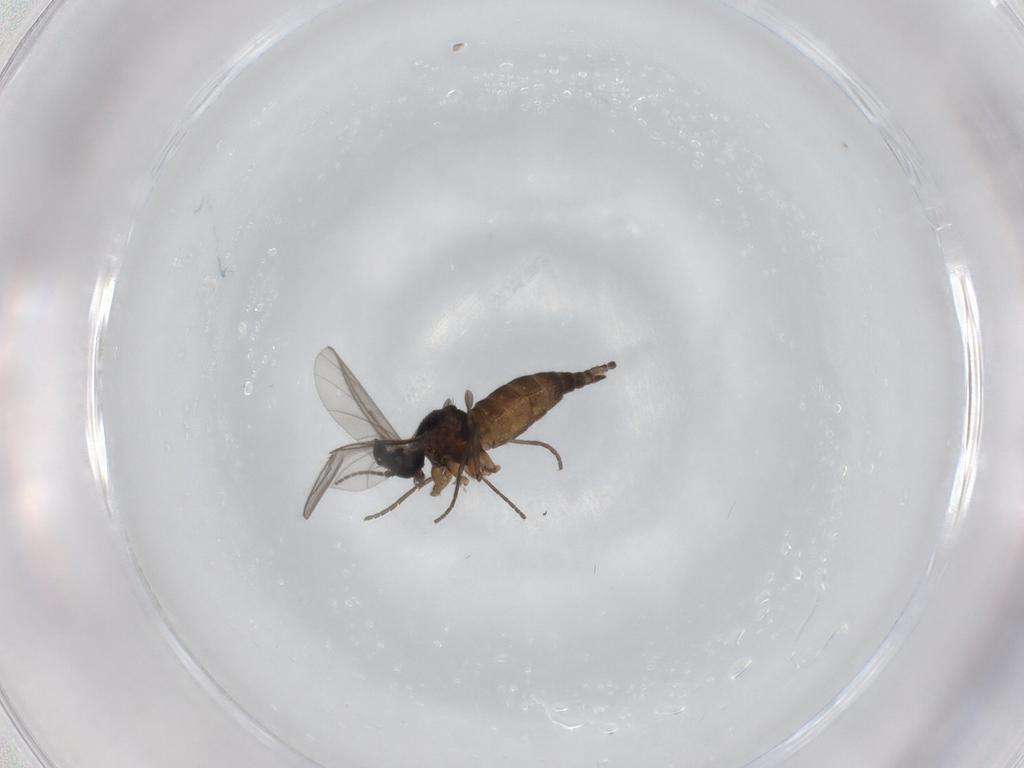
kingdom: Animalia
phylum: Arthropoda
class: Insecta
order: Diptera
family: Sciaridae
